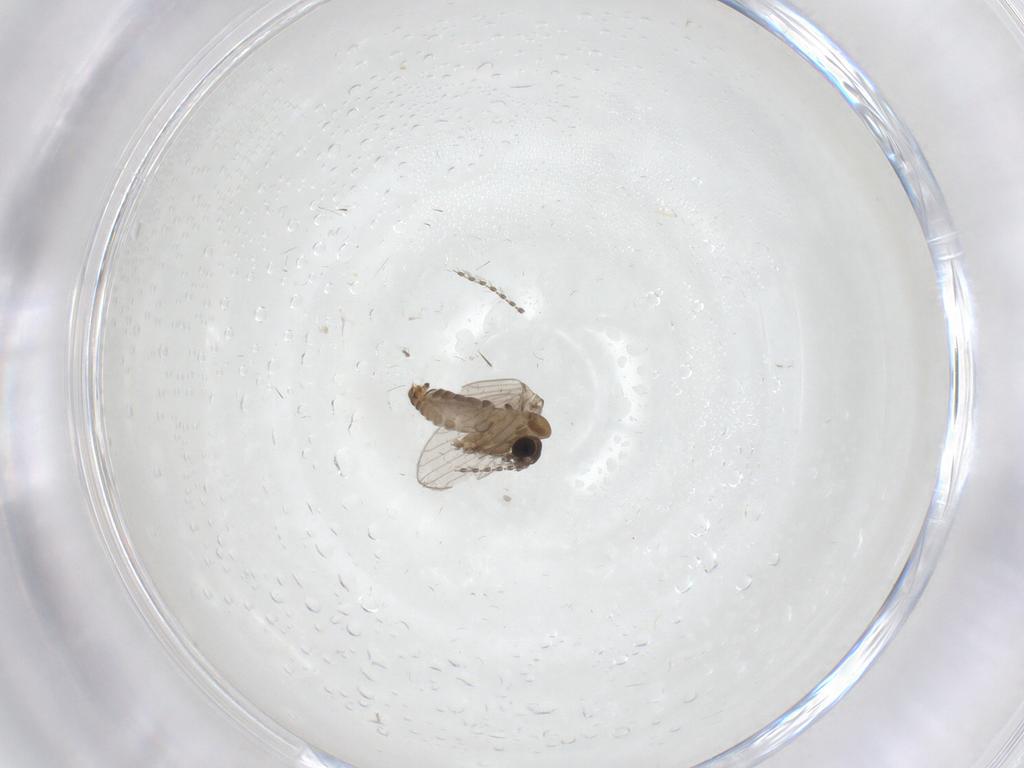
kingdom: Animalia
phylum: Arthropoda
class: Insecta
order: Diptera
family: Psychodidae
